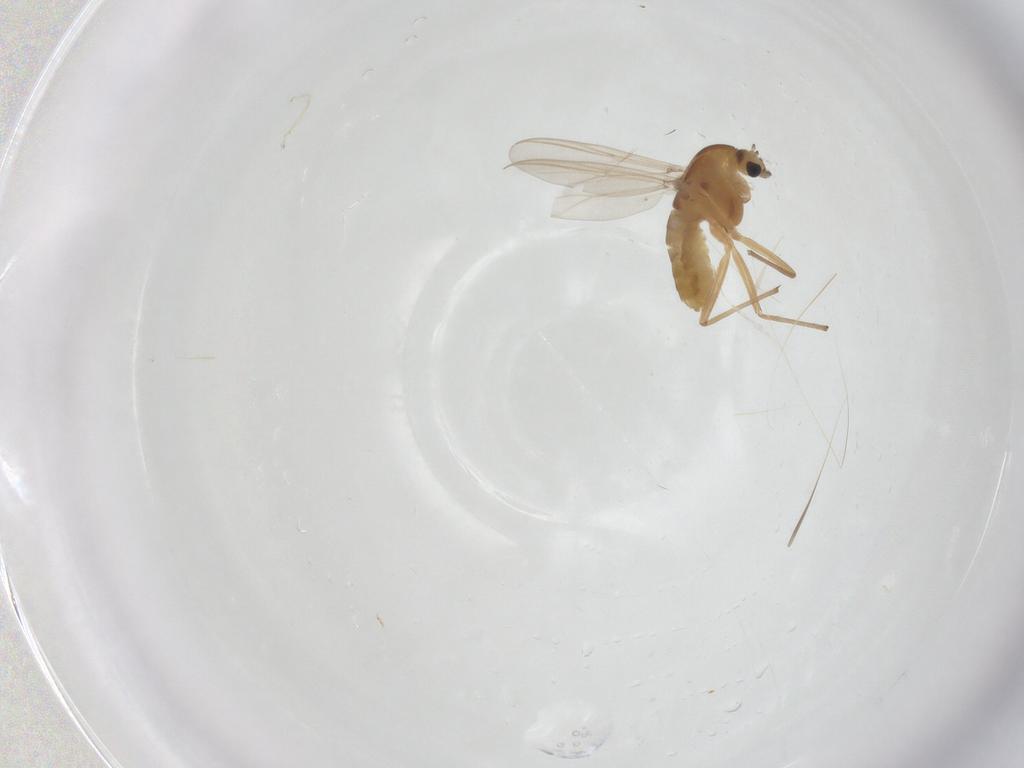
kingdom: Animalia
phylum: Arthropoda
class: Insecta
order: Diptera
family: Chironomidae
